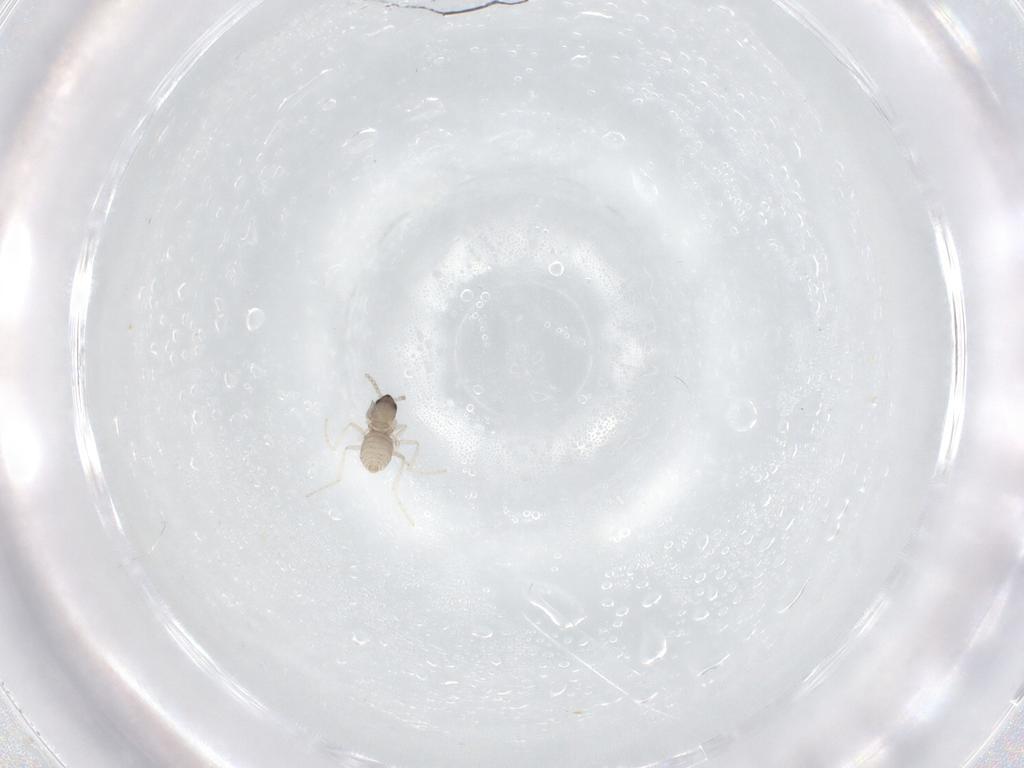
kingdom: Animalia
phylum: Arthropoda
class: Insecta
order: Diptera
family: Cecidomyiidae
